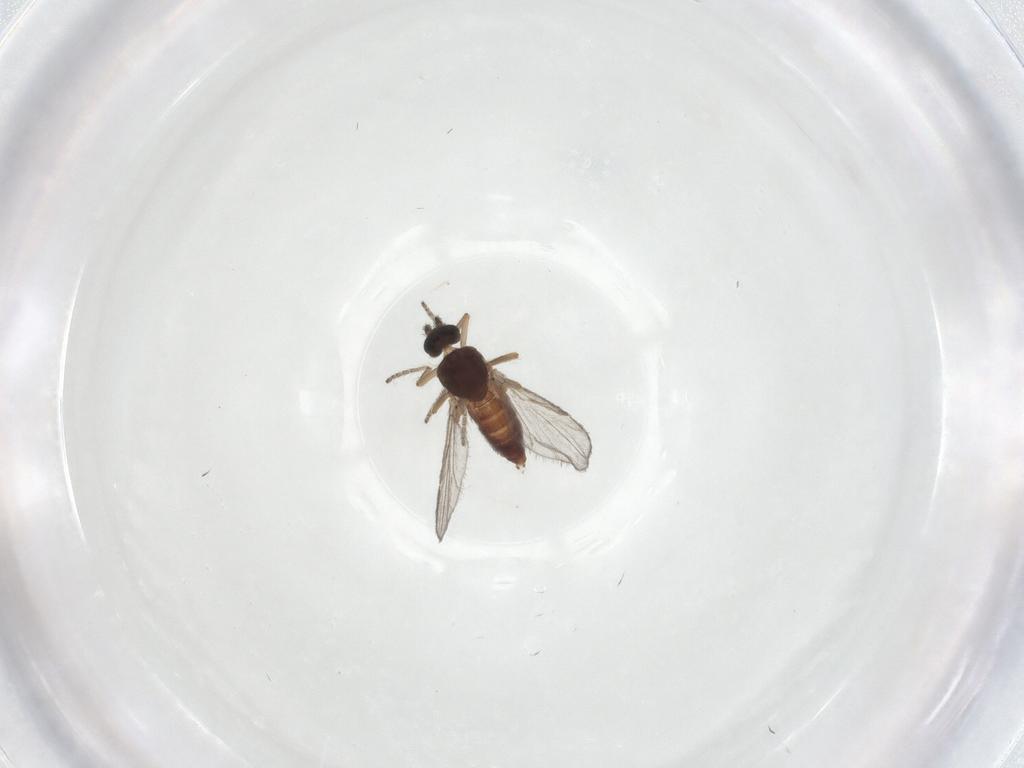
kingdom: Animalia
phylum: Arthropoda
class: Insecta
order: Diptera
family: Ceratopogonidae
